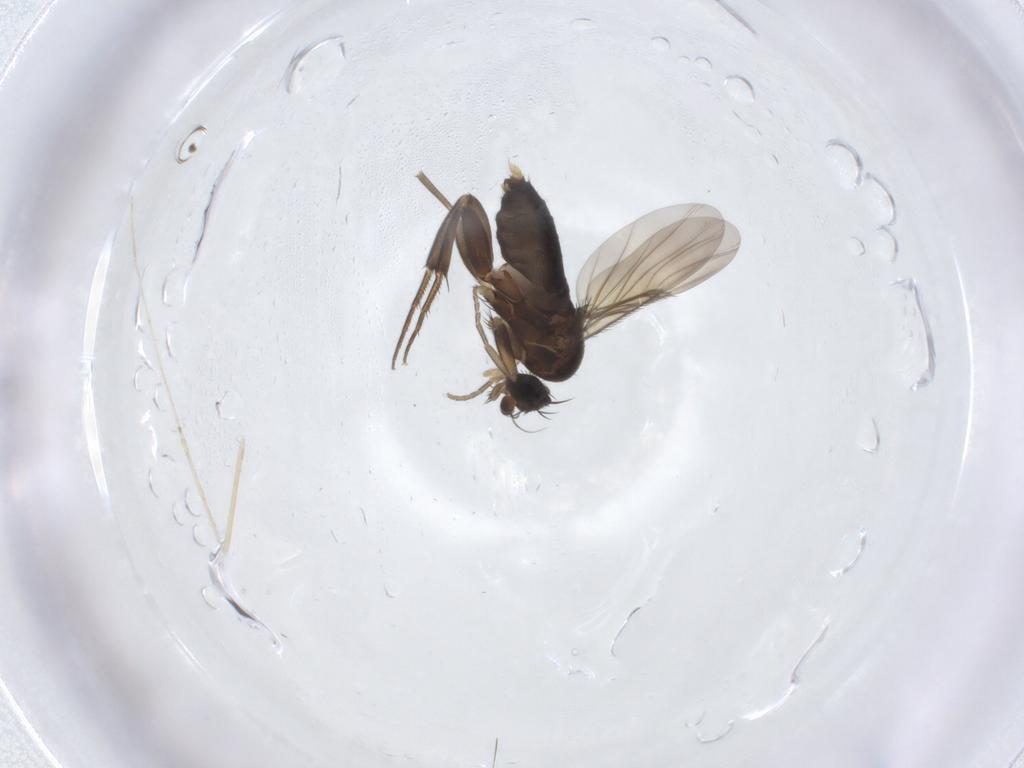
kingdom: Animalia
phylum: Arthropoda
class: Insecta
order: Diptera
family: Phoridae
